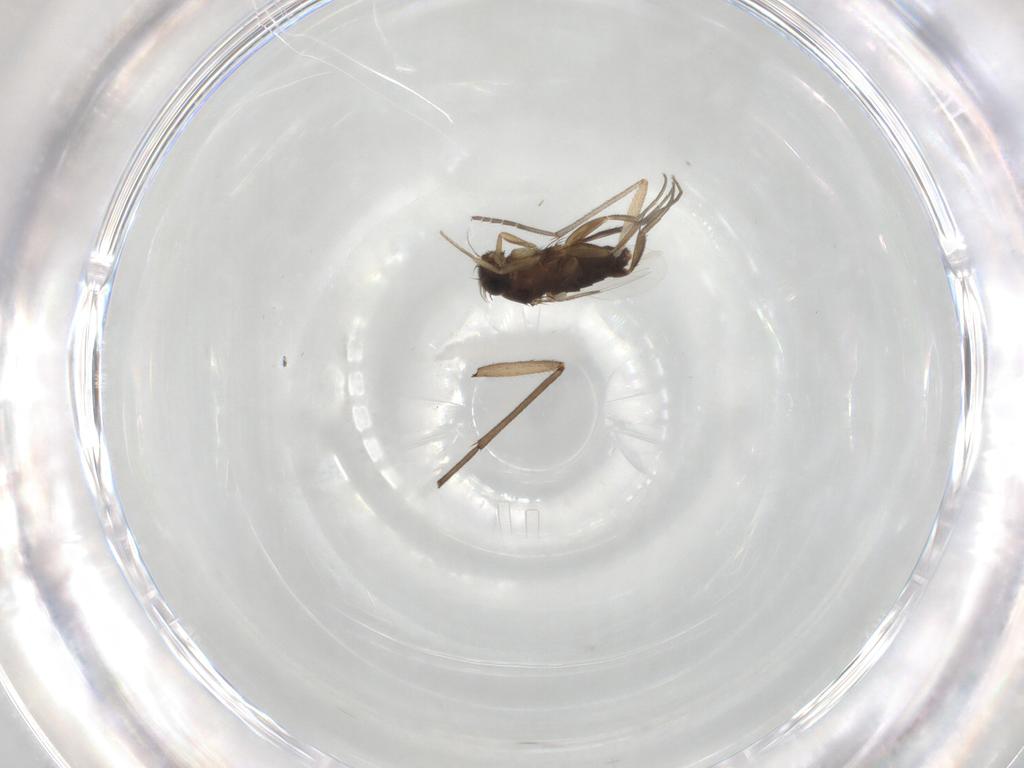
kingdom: Animalia
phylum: Arthropoda
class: Insecta
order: Diptera
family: Phoridae
